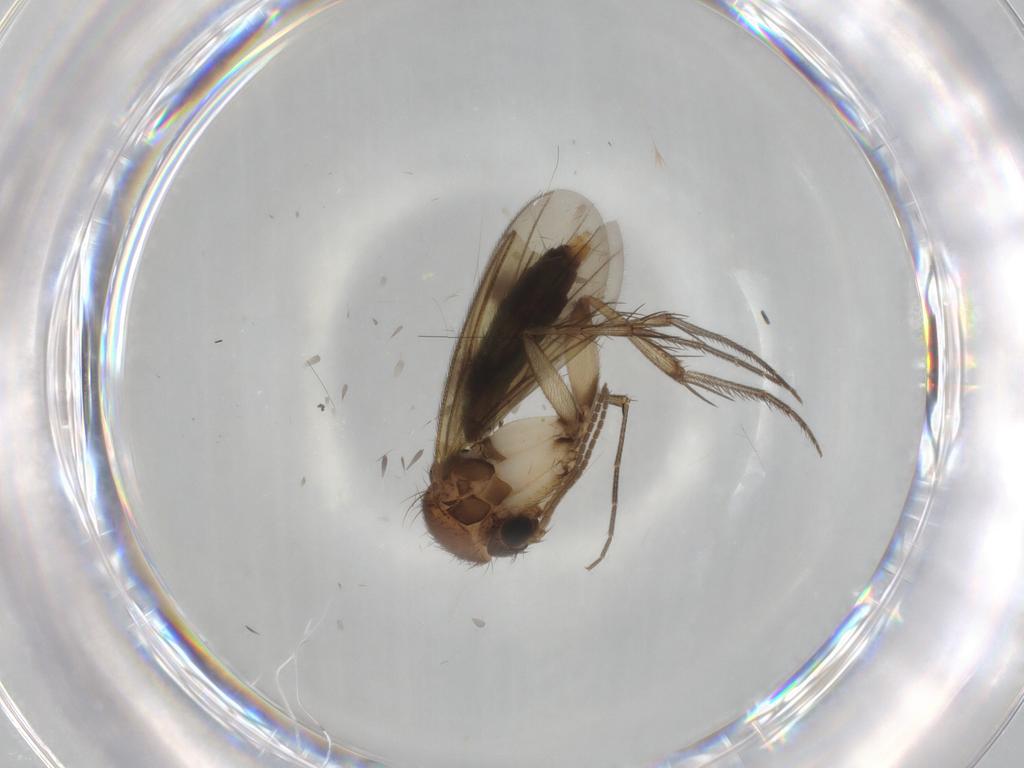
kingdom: Animalia
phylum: Arthropoda
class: Insecta
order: Diptera
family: Mycetophilidae
